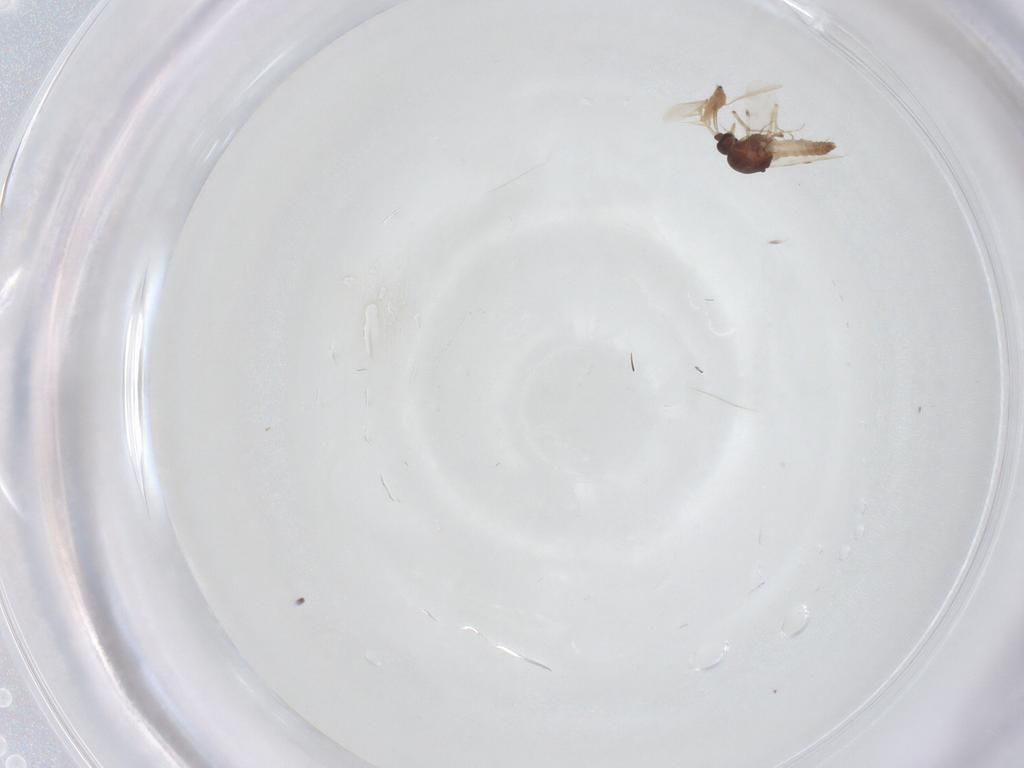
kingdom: Animalia
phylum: Arthropoda
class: Insecta
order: Hemiptera
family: Diaspididae
